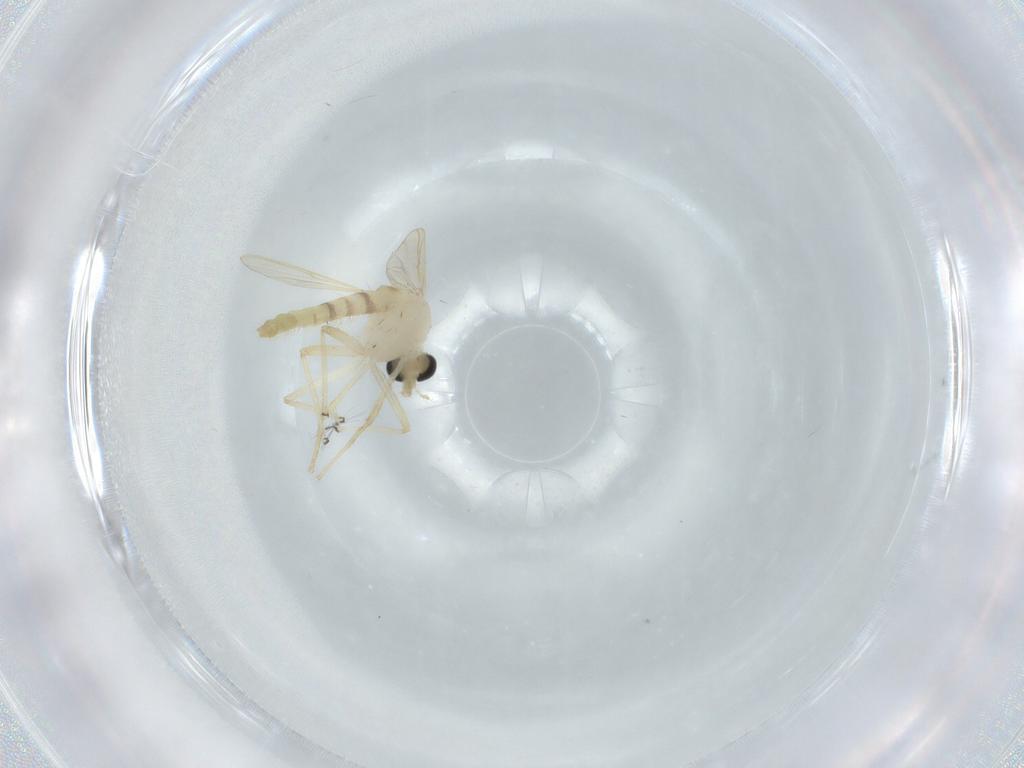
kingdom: Animalia
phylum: Arthropoda
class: Insecta
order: Diptera
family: Chironomidae
